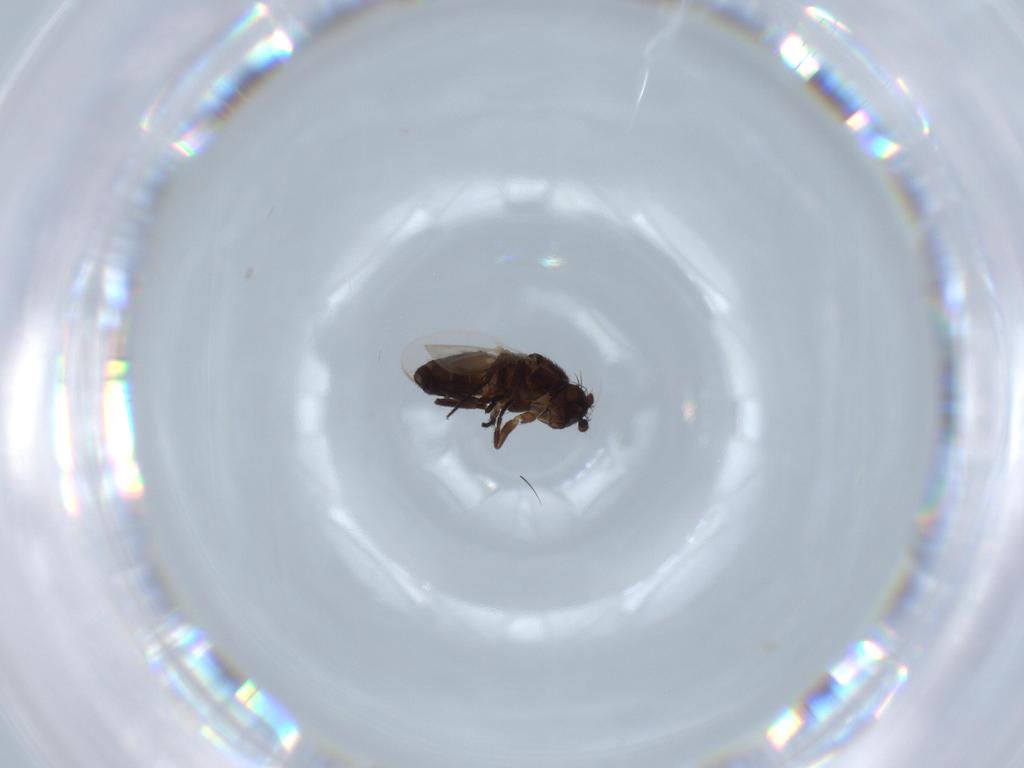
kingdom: Animalia
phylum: Arthropoda
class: Insecta
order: Diptera
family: Sphaeroceridae
